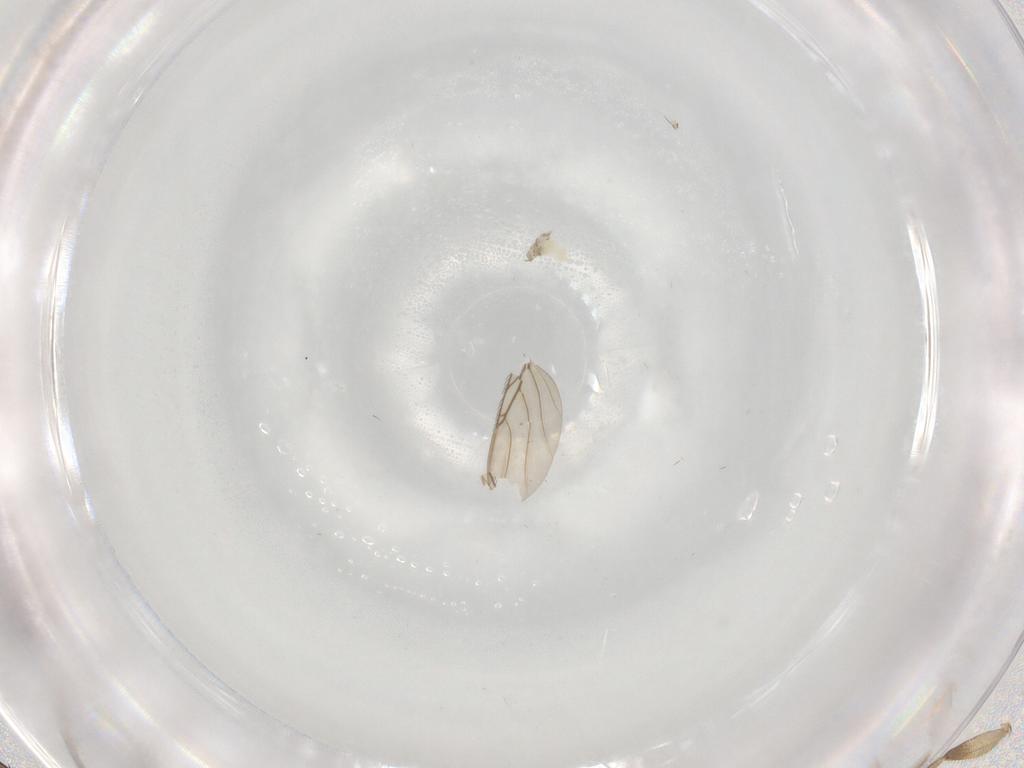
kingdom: Animalia
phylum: Arthropoda
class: Insecta
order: Diptera
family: Phoridae
